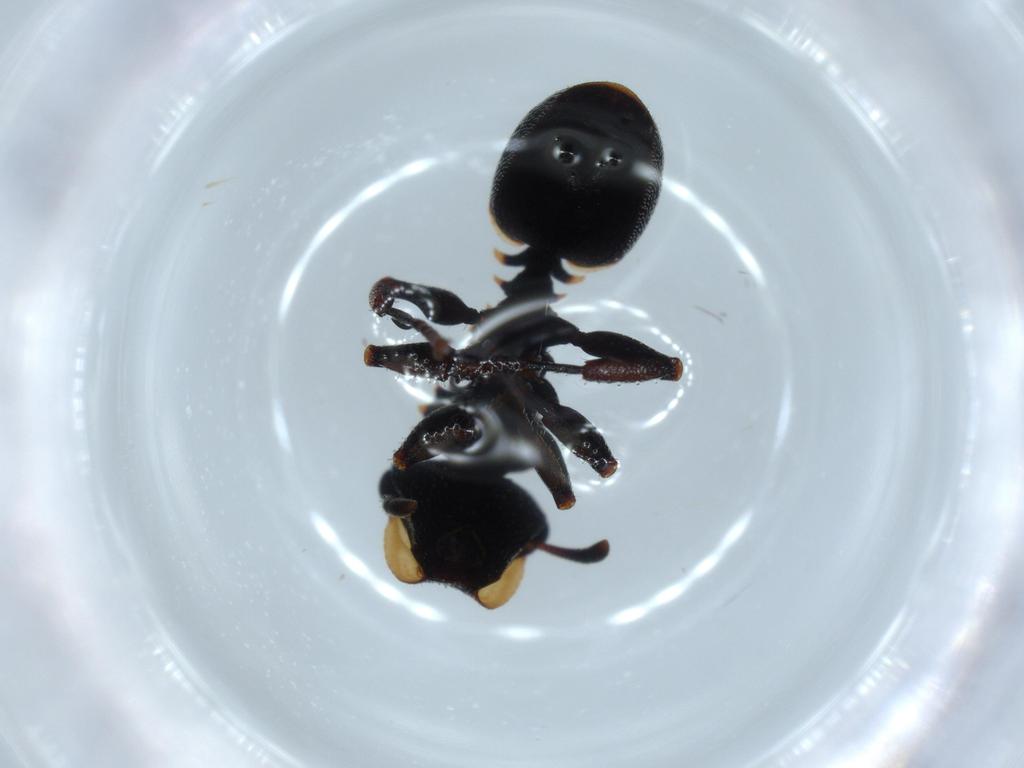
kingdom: Animalia
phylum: Arthropoda
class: Insecta
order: Hymenoptera
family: Formicidae
